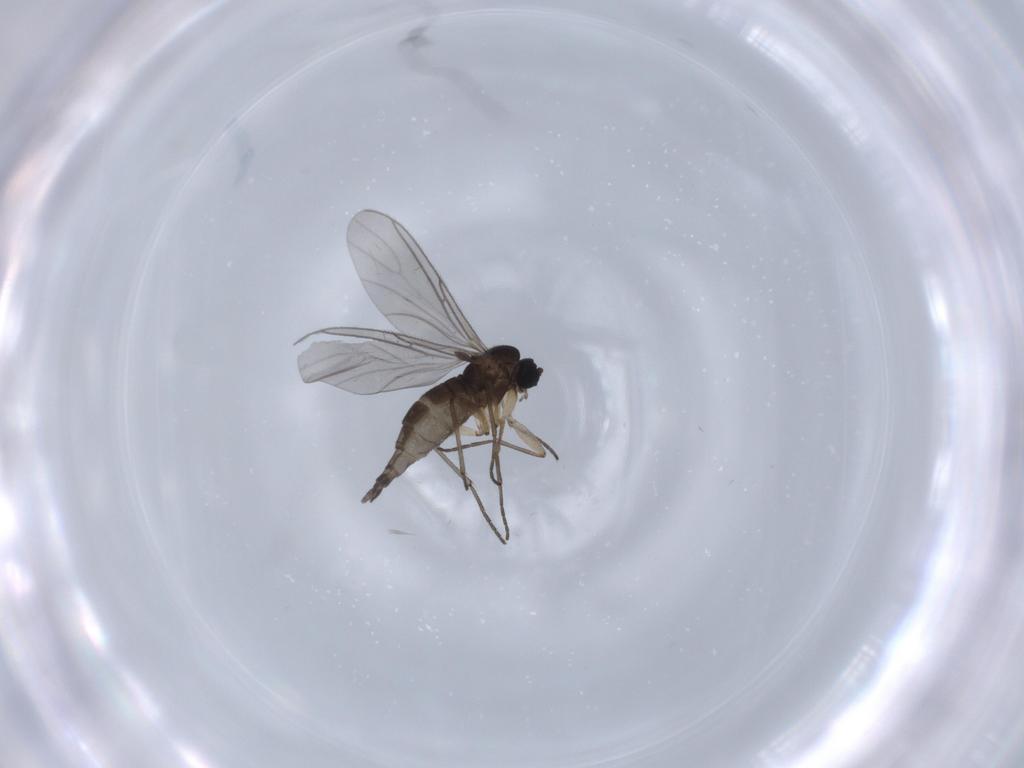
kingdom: Animalia
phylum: Arthropoda
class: Insecta
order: Diptera
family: Sciaridae
